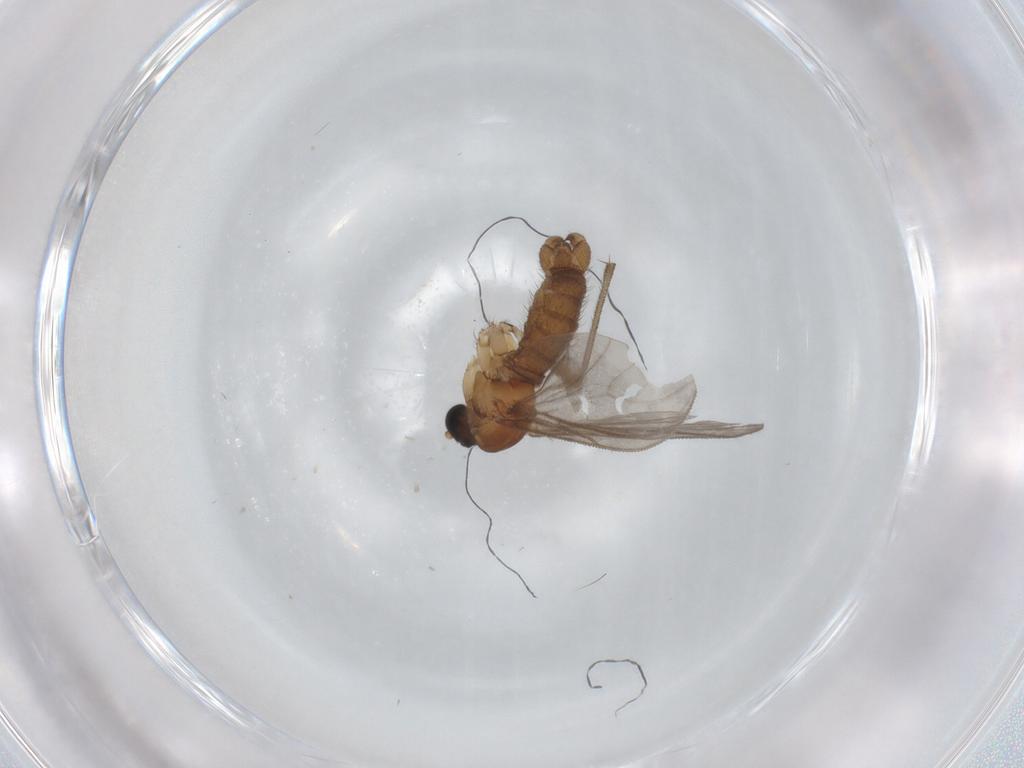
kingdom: Animalia
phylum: Arthropoda
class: Insecta
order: Diptera
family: Sciaridae
